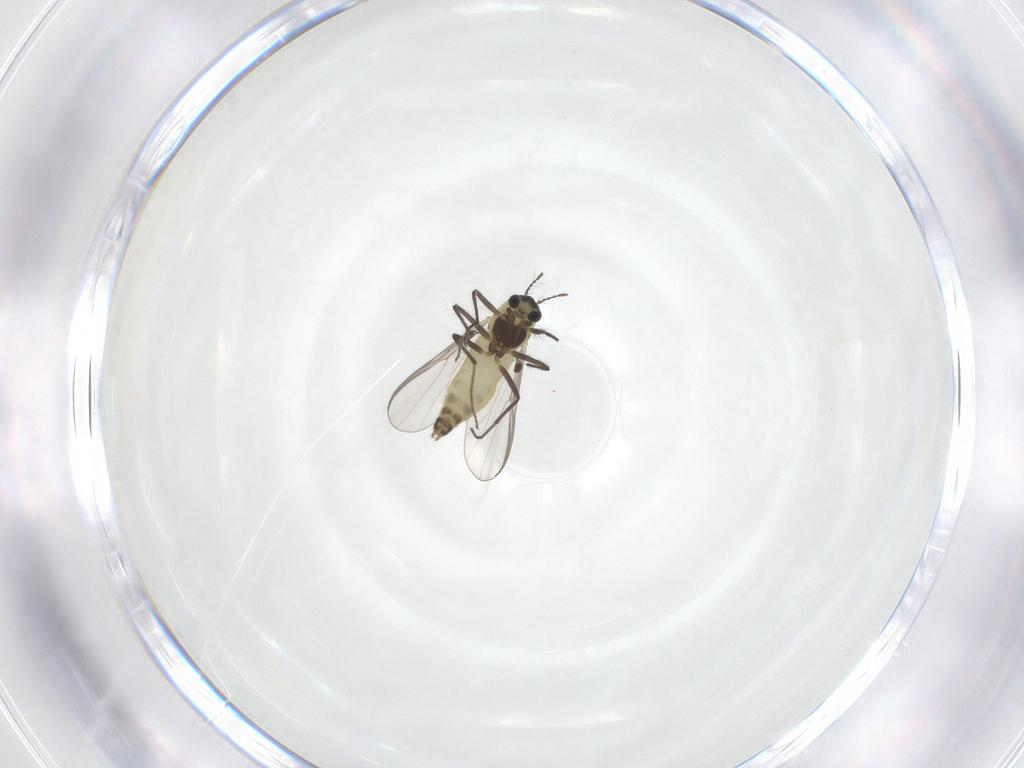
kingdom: Animalia
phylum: Arthropoda
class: Insecta
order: Diptera
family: Chironomidae
